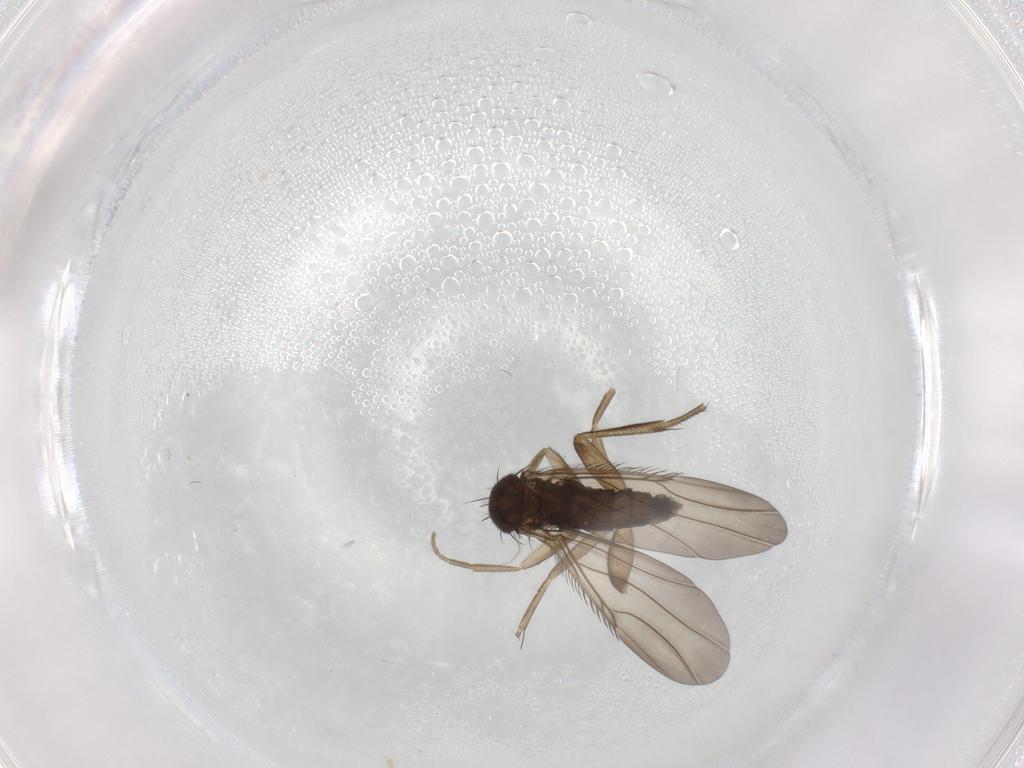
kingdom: Animalia
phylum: Arthropoda
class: Insecta
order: Diptera
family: Phoridae
